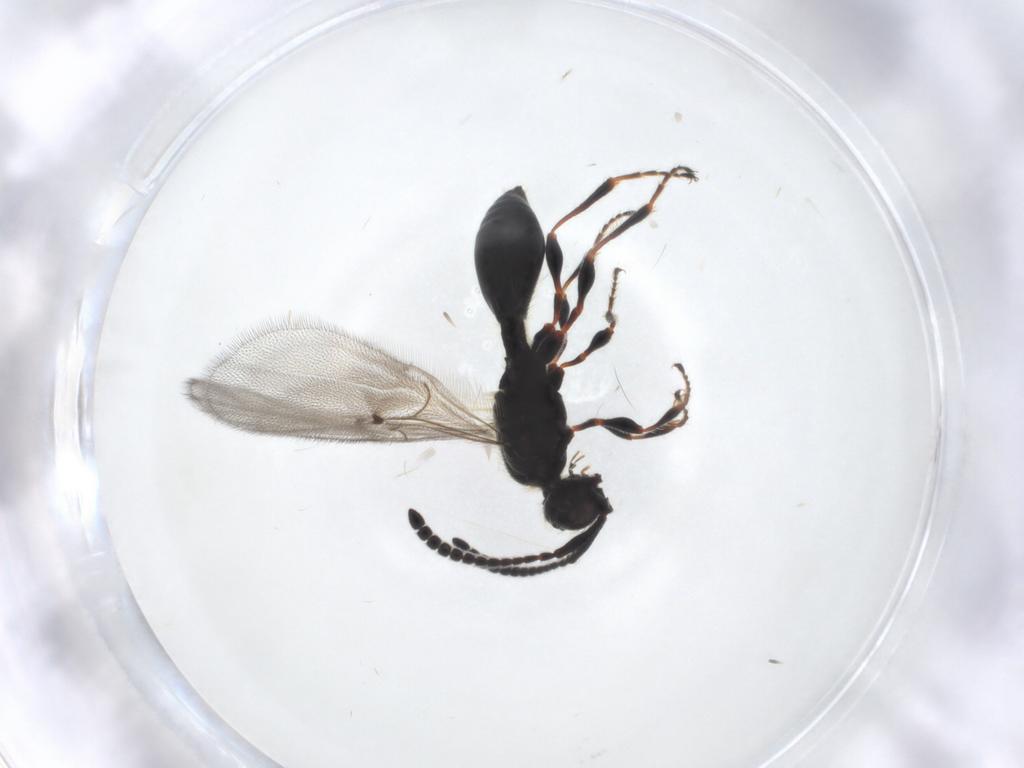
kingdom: Animalia
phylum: Arthropoda
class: Insecta
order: Hymenoptera
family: Diapriidae
